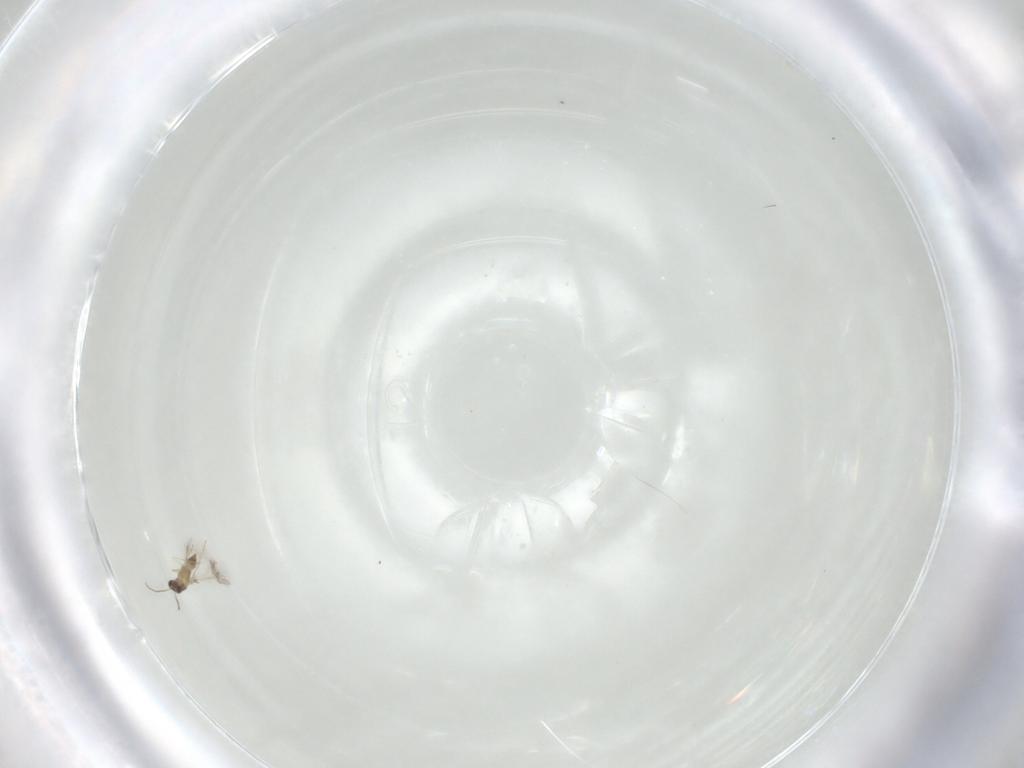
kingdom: Animalia
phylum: Arthropoda
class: Insecta
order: Hymenoptera
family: Mymaridae
